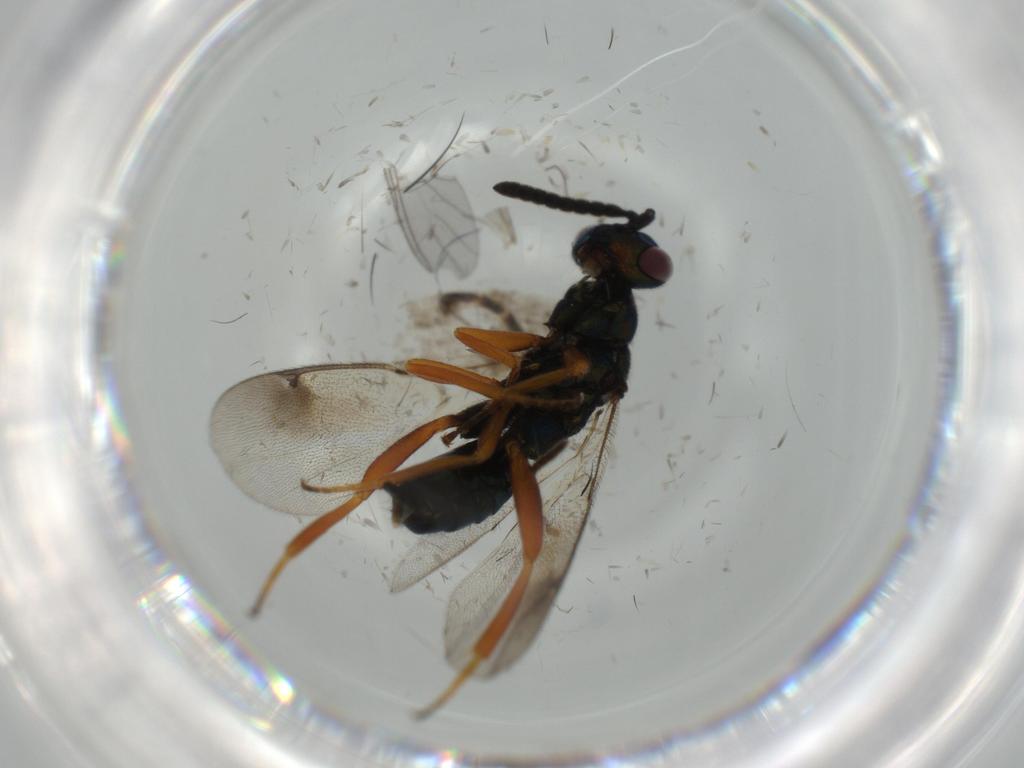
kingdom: Animalia
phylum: Arthropoda
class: Insecta
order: Hymenoptera
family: Torymidae
